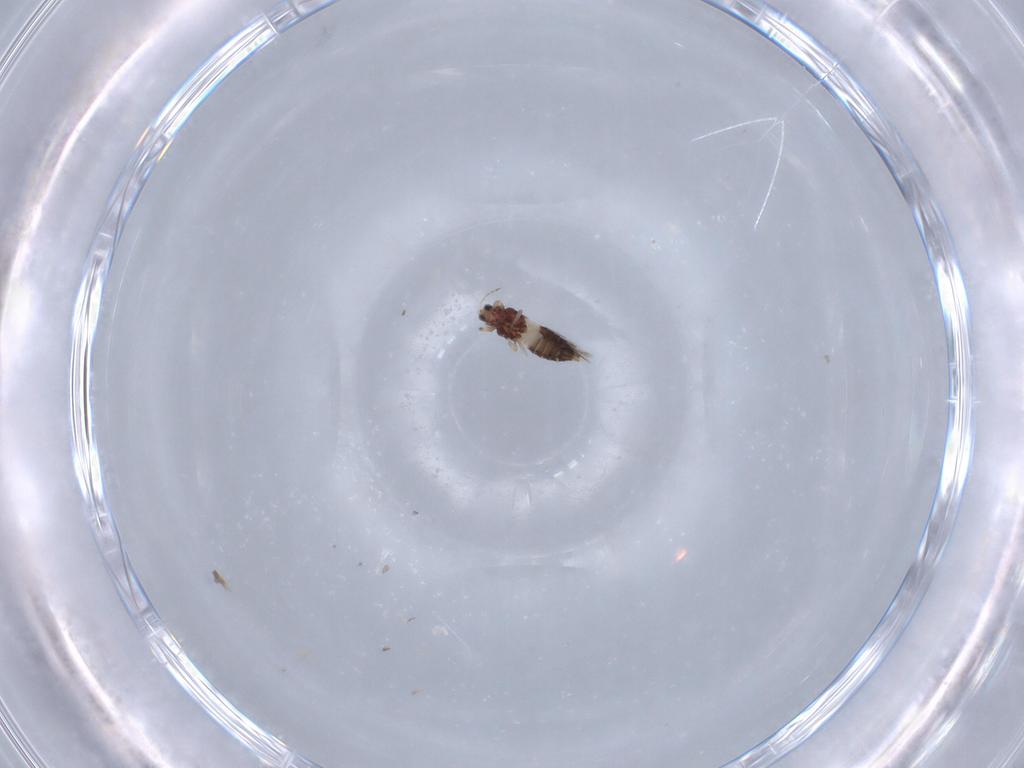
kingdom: Animalia
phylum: Arthropoda
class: Insecta
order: Thysanoptera
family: Thripidae
